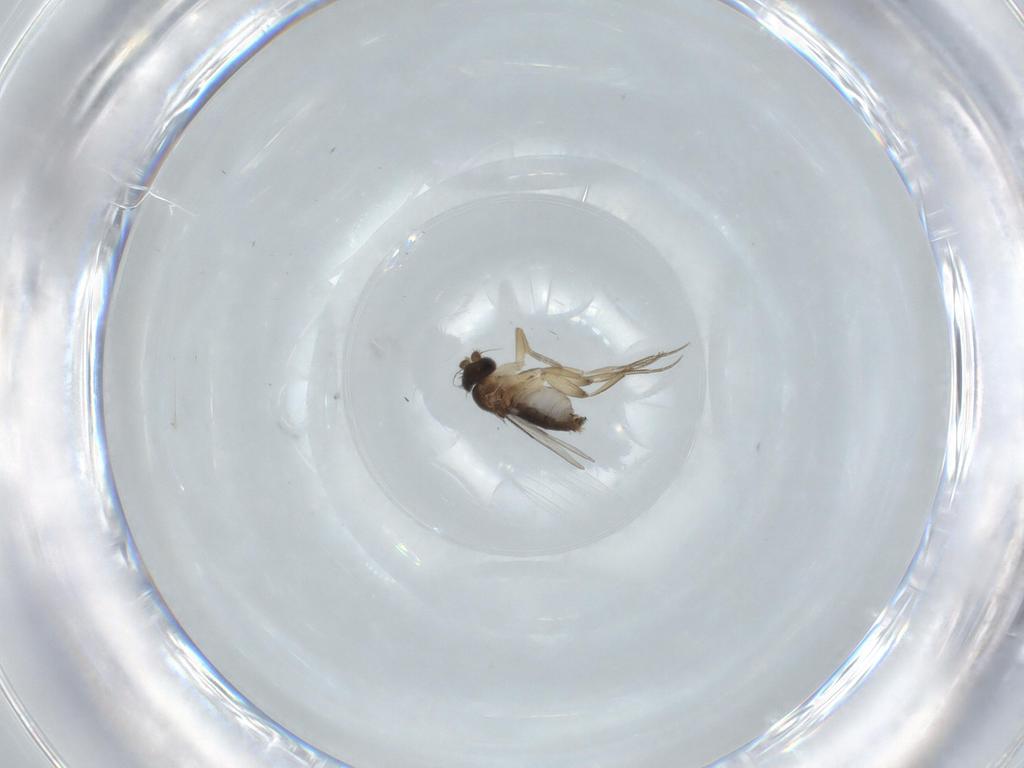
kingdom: Animalia
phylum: Arthropoda
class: Insecta
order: Diptera
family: Phoridae
